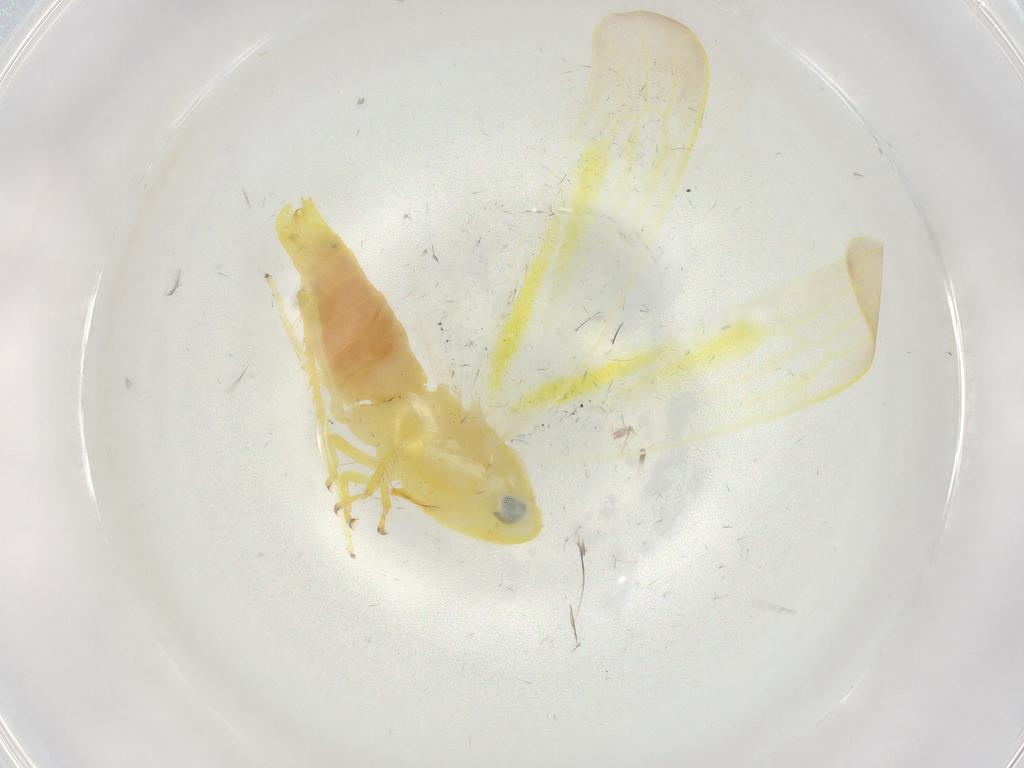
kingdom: Animalia
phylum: Arthropoda
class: Insecta
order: Hemiptera
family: Cicadellidae
